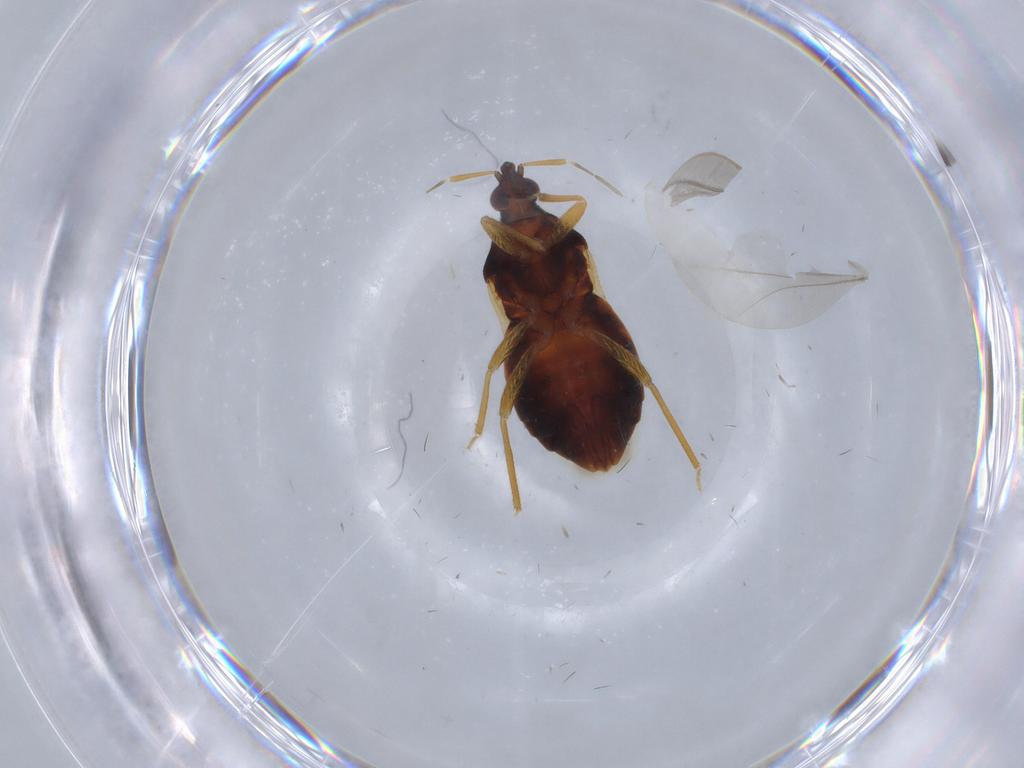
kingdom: Animalia
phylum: Arthropoda
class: Insecta
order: Hemiptera
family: Anthocoridae
